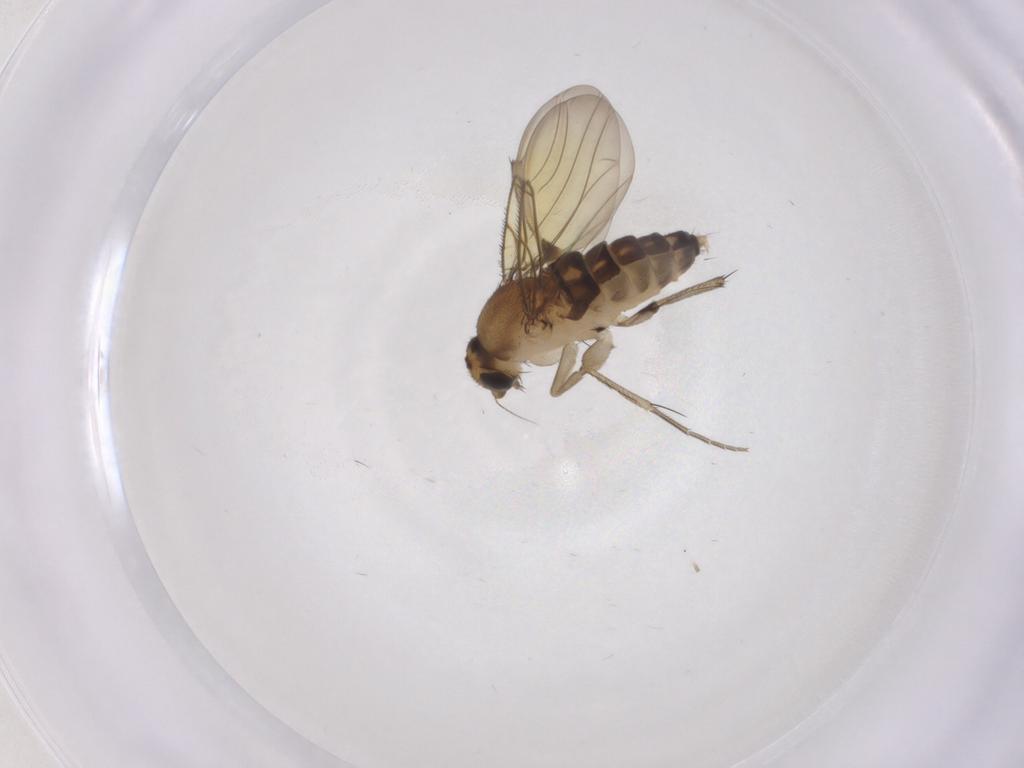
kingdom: Animalia
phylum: Arthropoda
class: Insecta
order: Diptera
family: Phoridae
